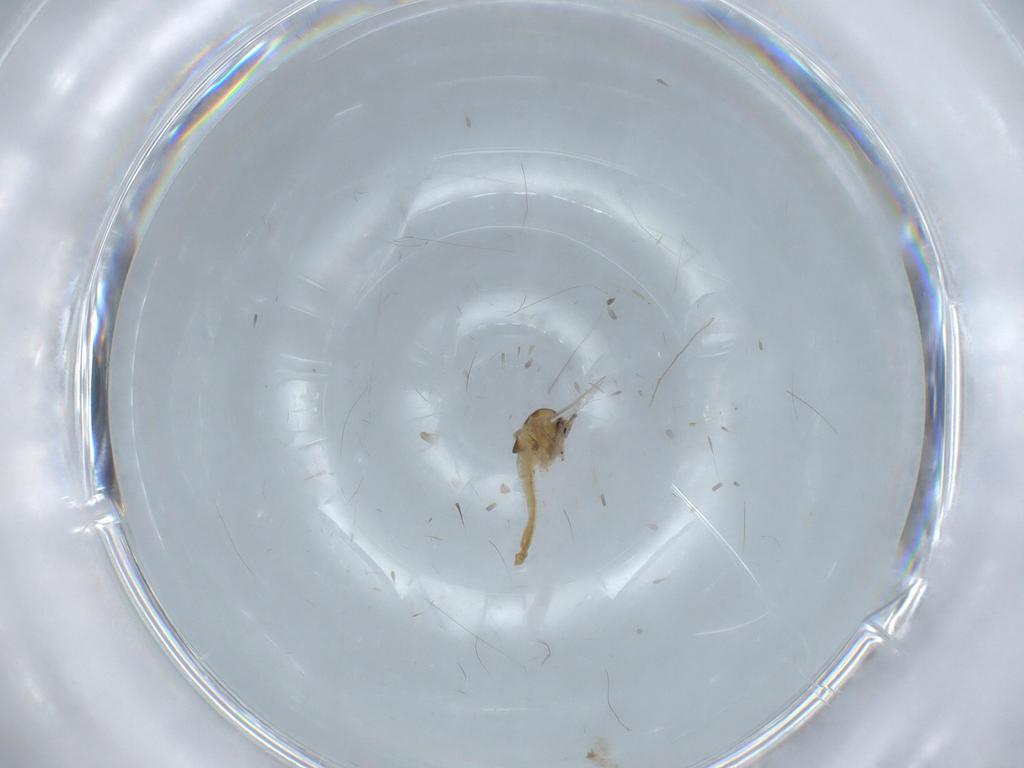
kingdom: Animalia
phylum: Arthropoda
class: Insecta
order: Diptera
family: Chironomidae
